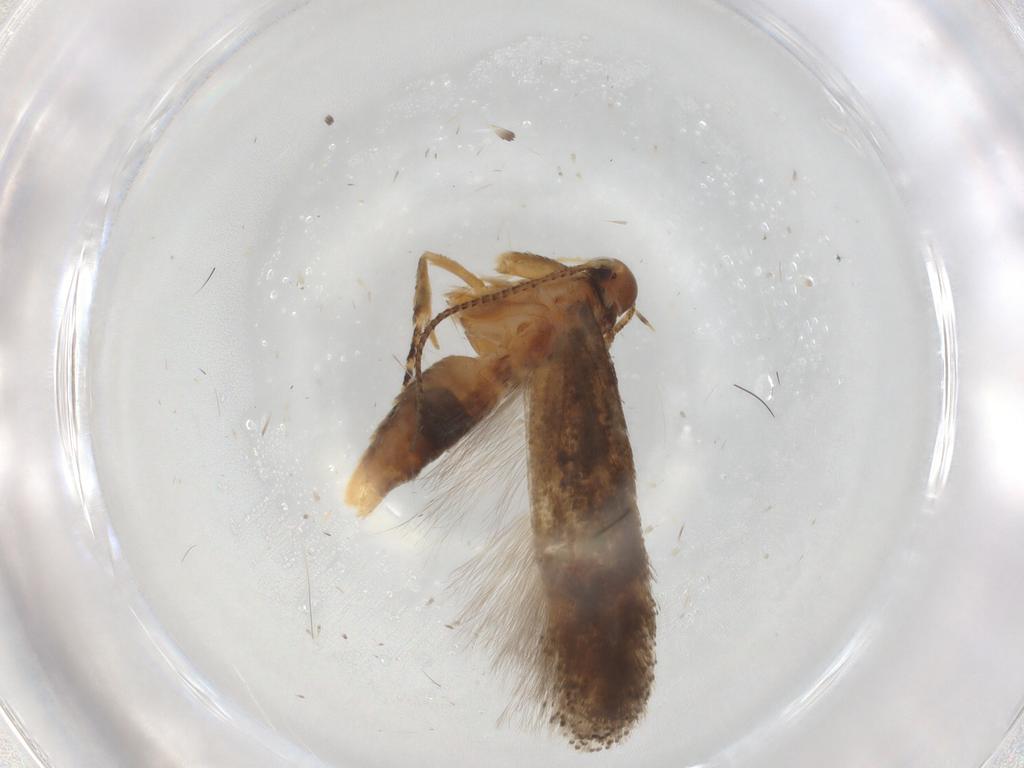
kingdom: Animalia
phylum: Arthropoda
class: Insecta
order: Lepidoptera
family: Gelechiidae
